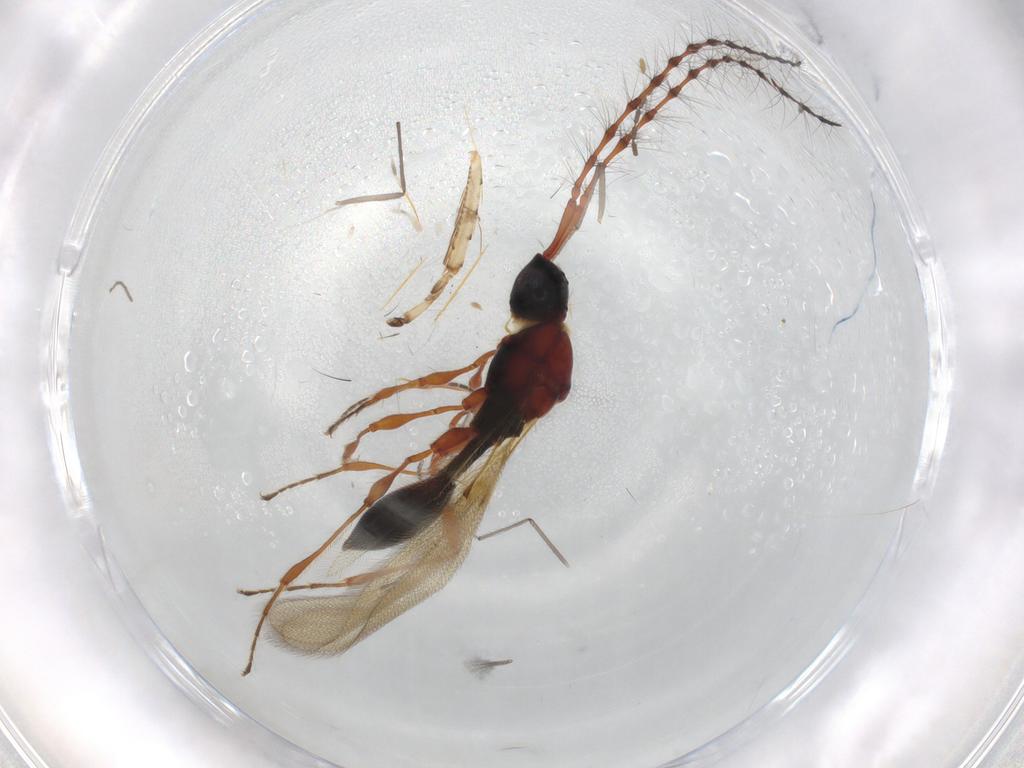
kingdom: Animalia
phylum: Arthropoda
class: Insecta
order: Hymenoptera
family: Diapriidae
